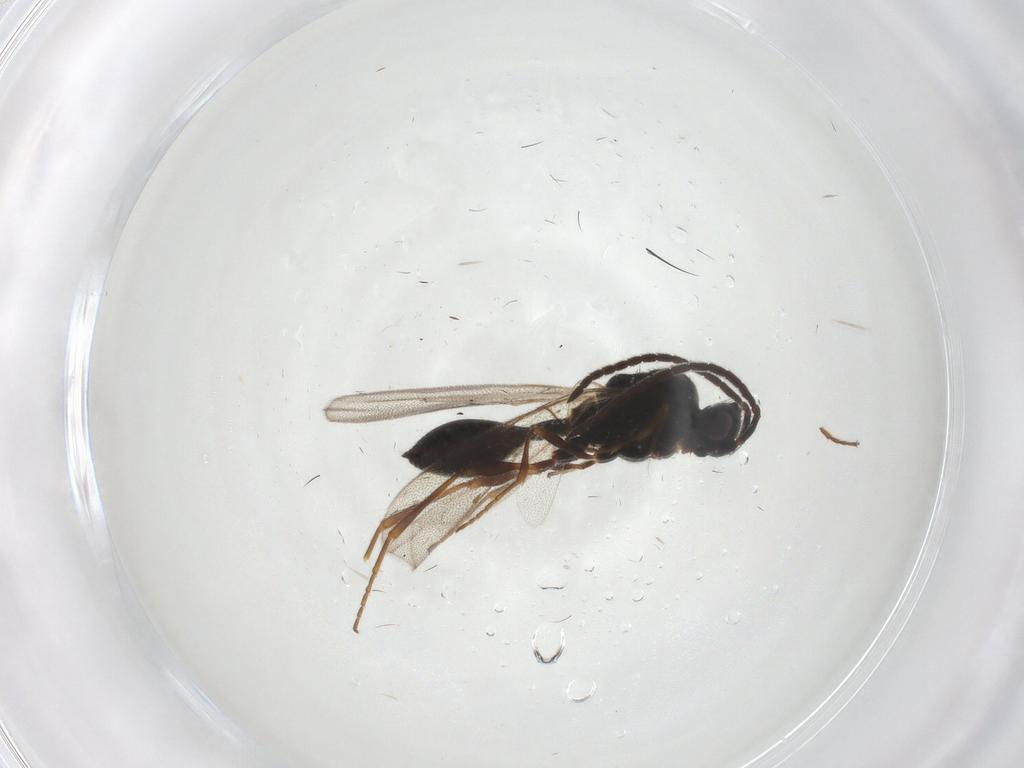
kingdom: Animalia
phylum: Arthropoda
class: Insecta
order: Hymenoptera
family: Diapriidae
